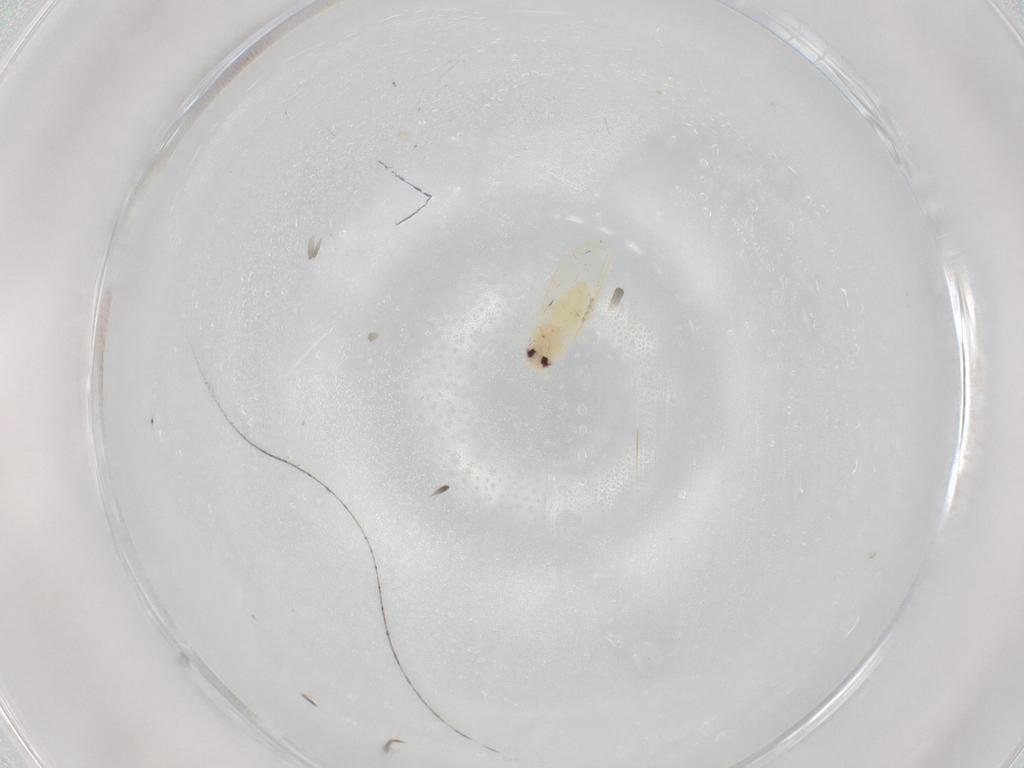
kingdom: Animalia
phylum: Arthropoda
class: Insecta
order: Hemiptera
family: Aleyrodidae
